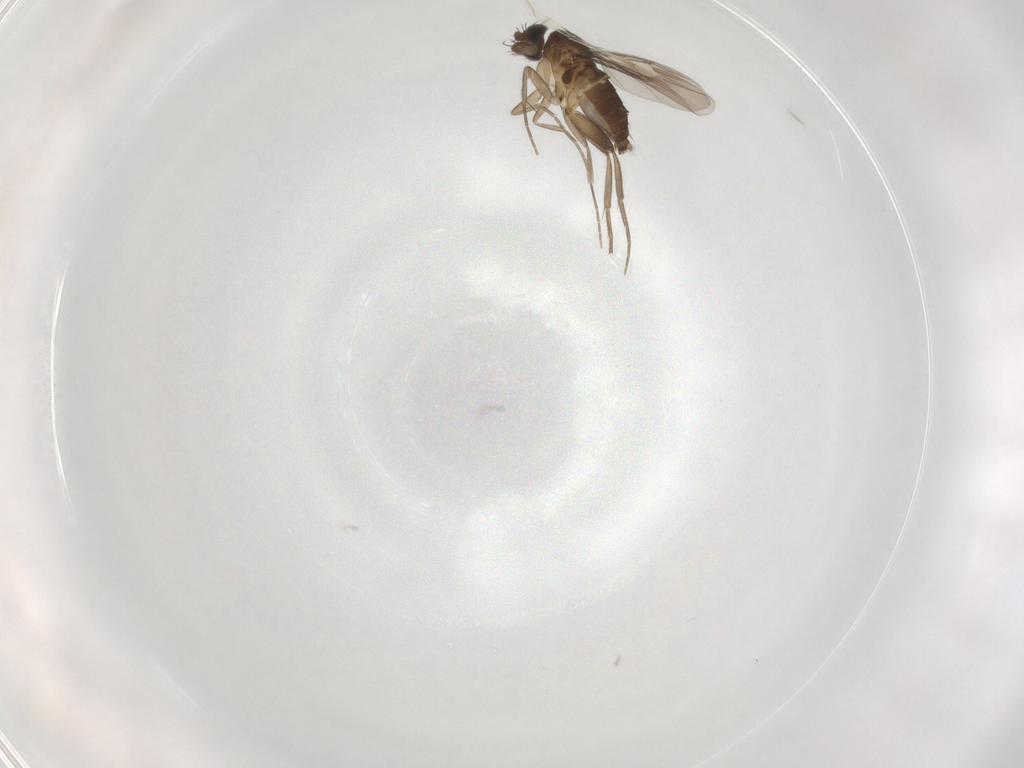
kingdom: Animalia
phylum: Arthropoda
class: Insecta
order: Diptera
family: Phoridae
